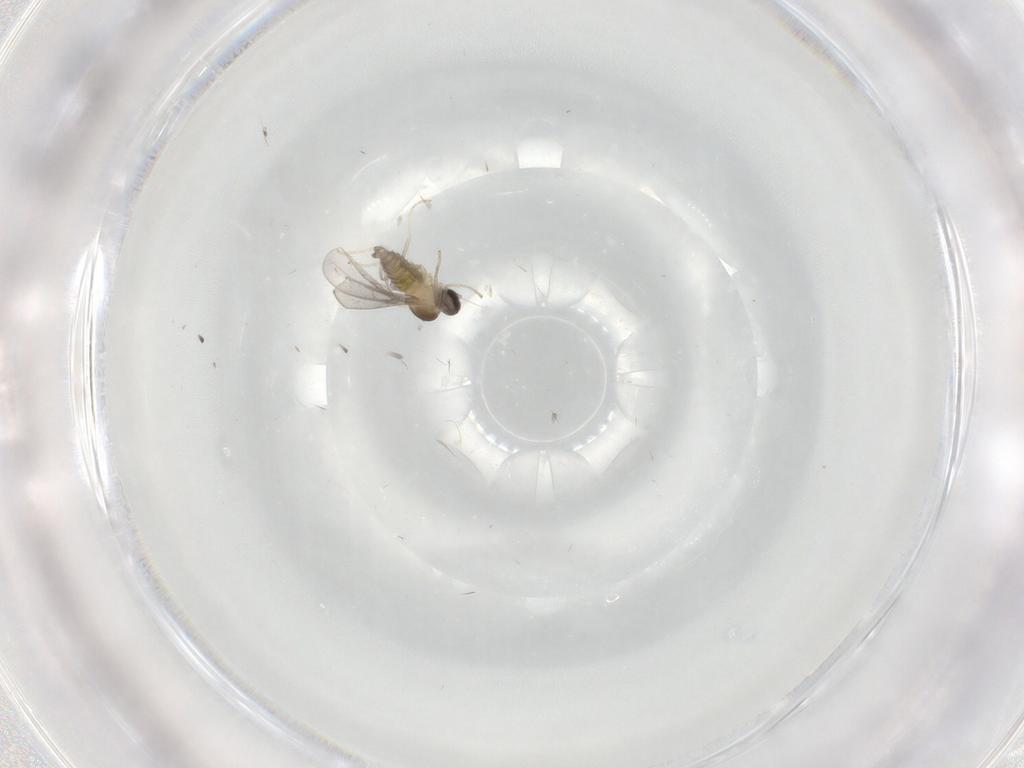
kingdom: Animalia
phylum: Arthropoda
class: Insecta
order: Diptera
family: Cecidomyiidae
